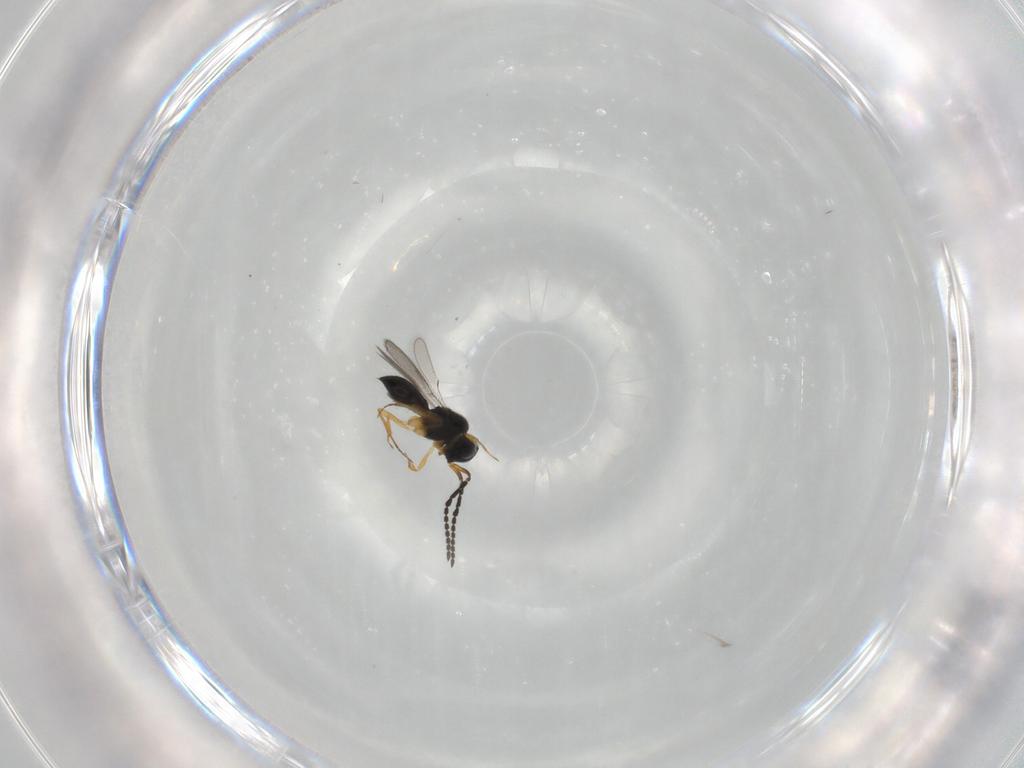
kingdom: Animalia
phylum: Arthropoda
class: Insecta
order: Hymenoptera
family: Scelionidae
